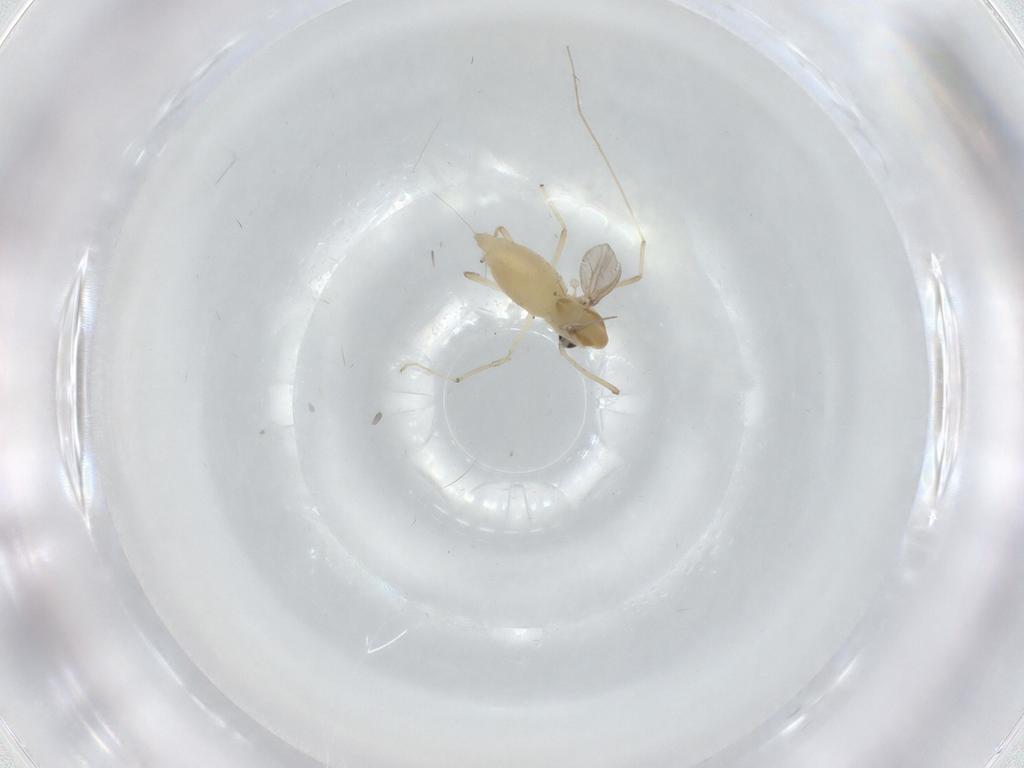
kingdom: Animalia
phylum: Arthropoda
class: Insecta
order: Diptera
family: Chironomidae
